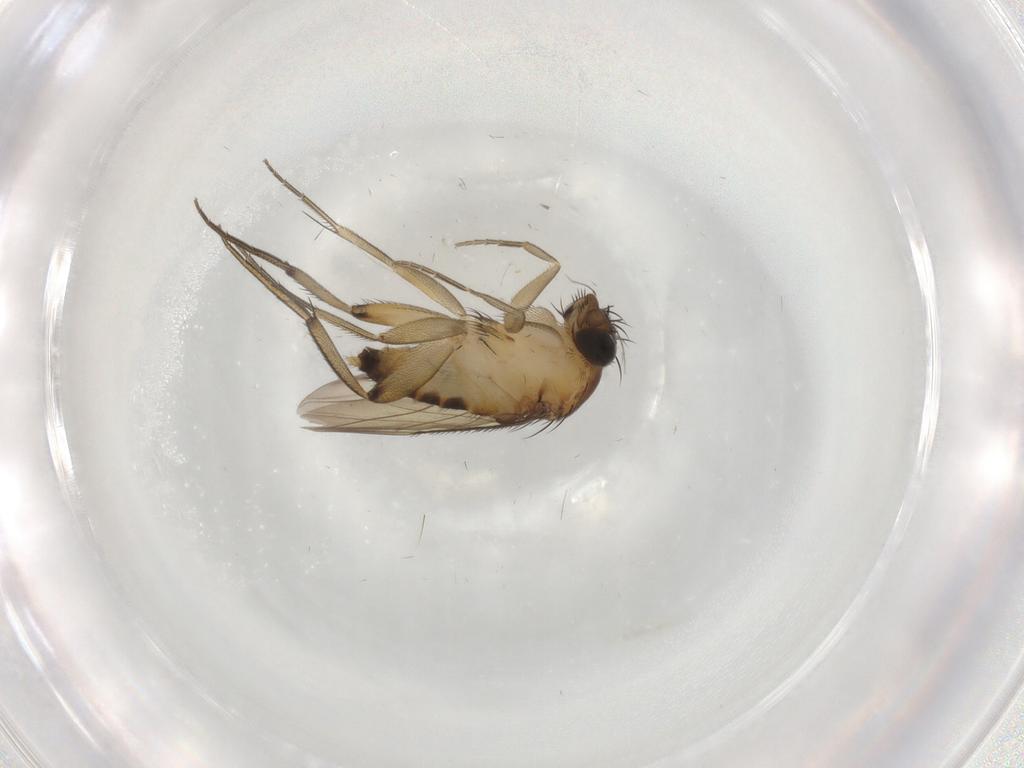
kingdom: Animalia
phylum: Arthropoda
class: Insecta
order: Diptera
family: Phoridae
